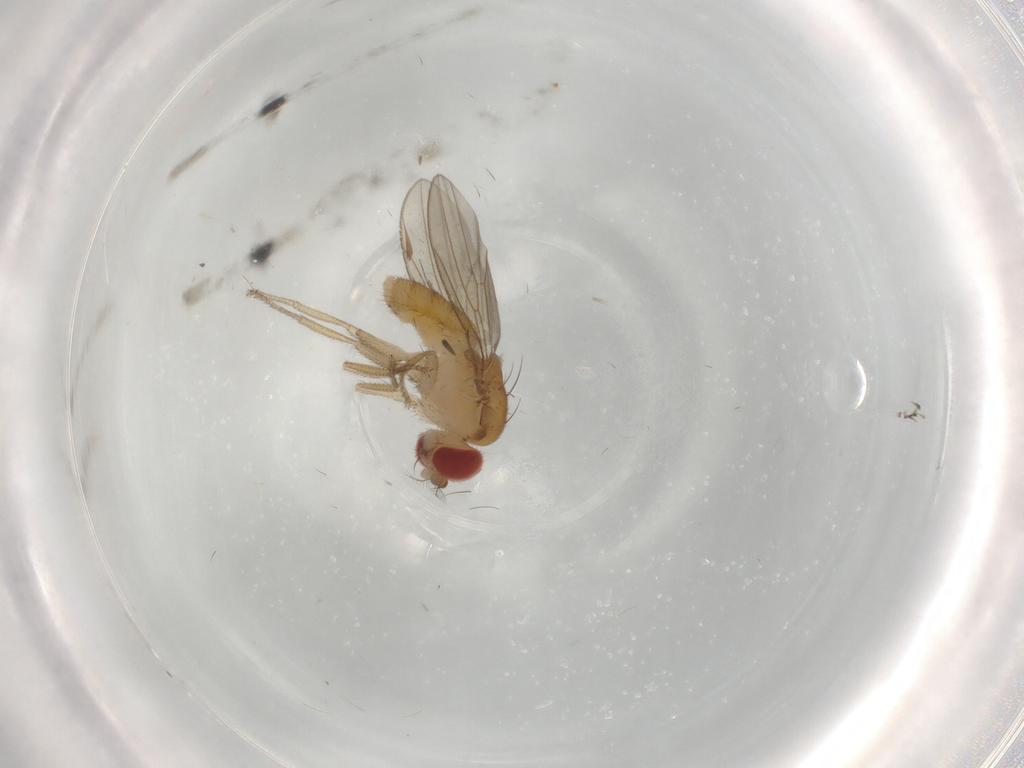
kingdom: Animalia
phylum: Arthropoda
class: Insecta
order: Diptera
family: Drosophilidae
